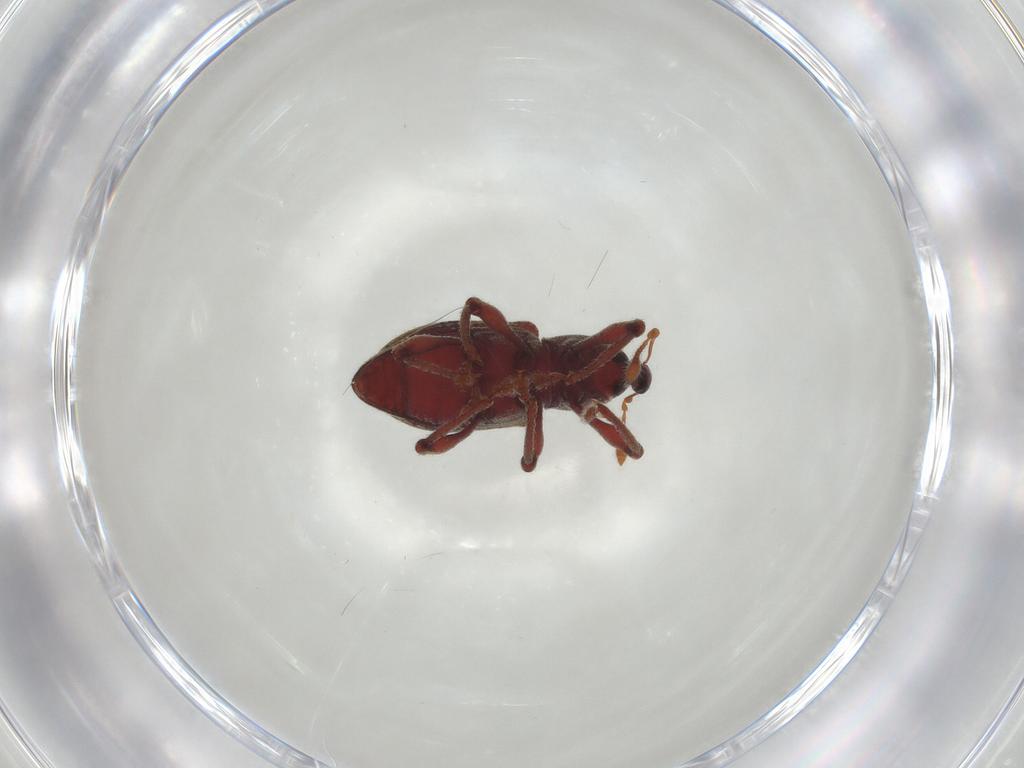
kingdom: Animalia
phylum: Arthropoda
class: Insecta
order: Coleoptera
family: Curculionidae
